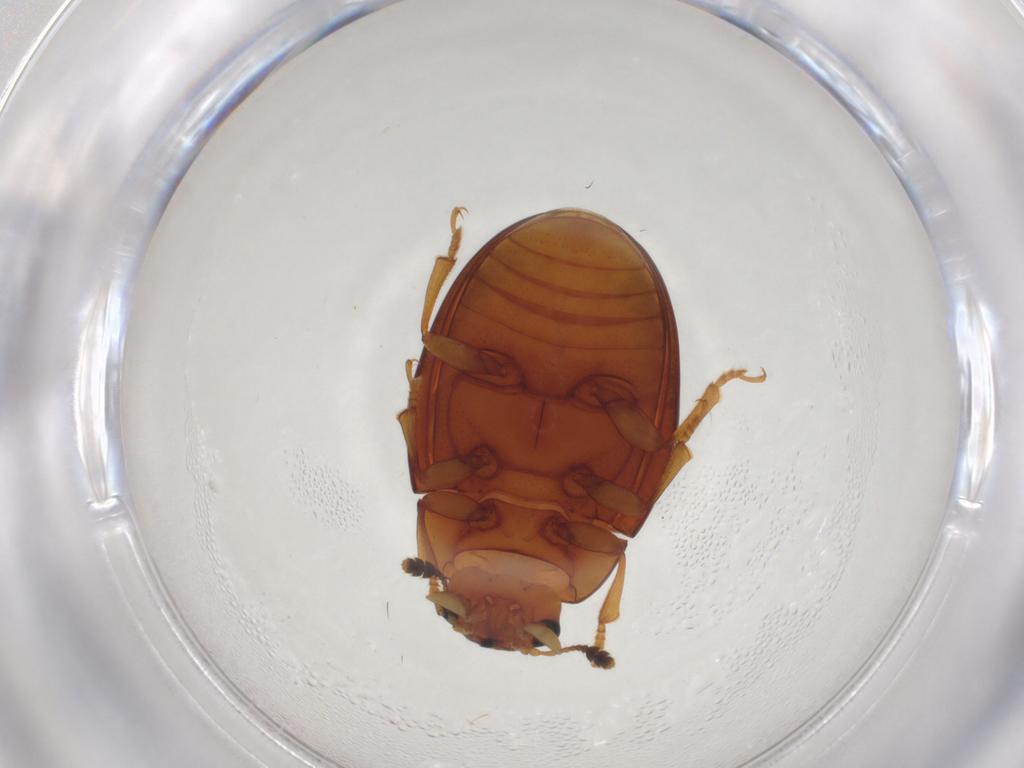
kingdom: Animalia
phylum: Arthropoda
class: Insecta
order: Coleoptera
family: Erotylidae
